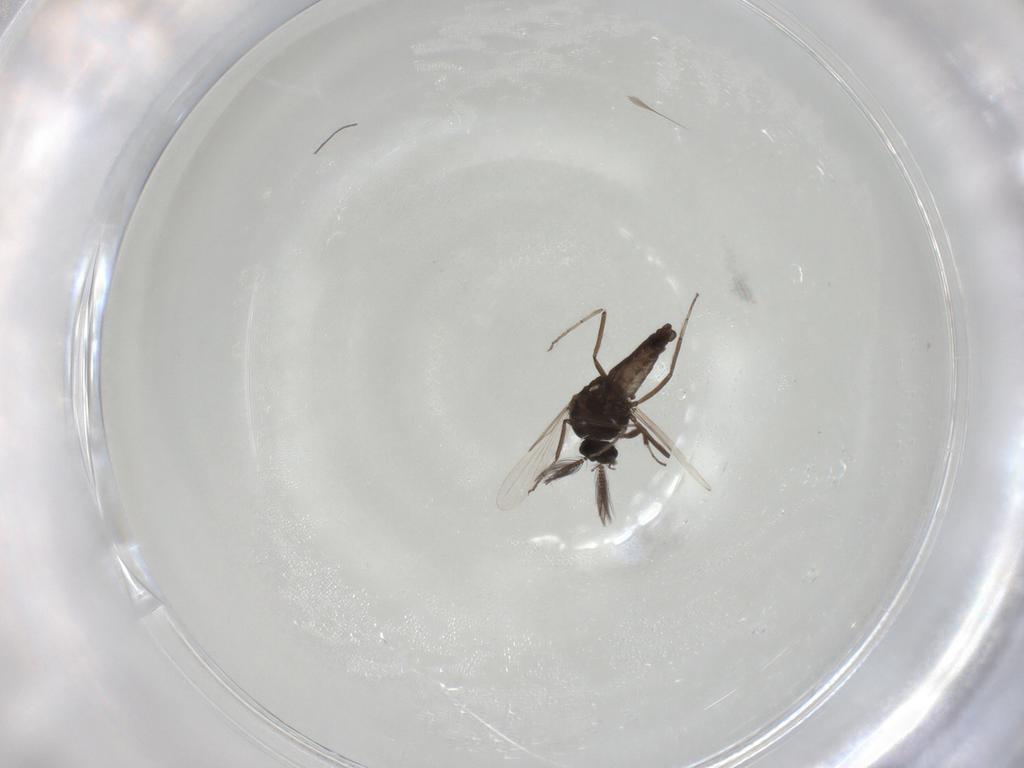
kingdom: Animalia
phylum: Arthropoda
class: Insecta
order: Diptera
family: Ceratopogonidae
